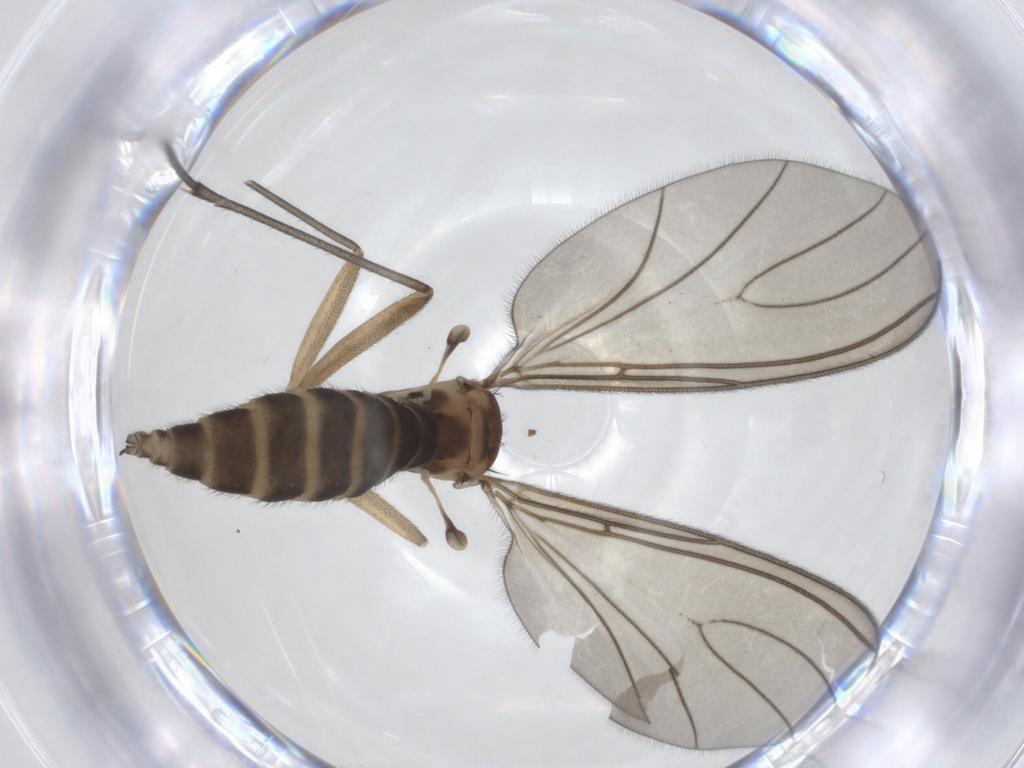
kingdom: Animalia
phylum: Arthropoda
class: Insecta
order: Diptera
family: Sciaridae
